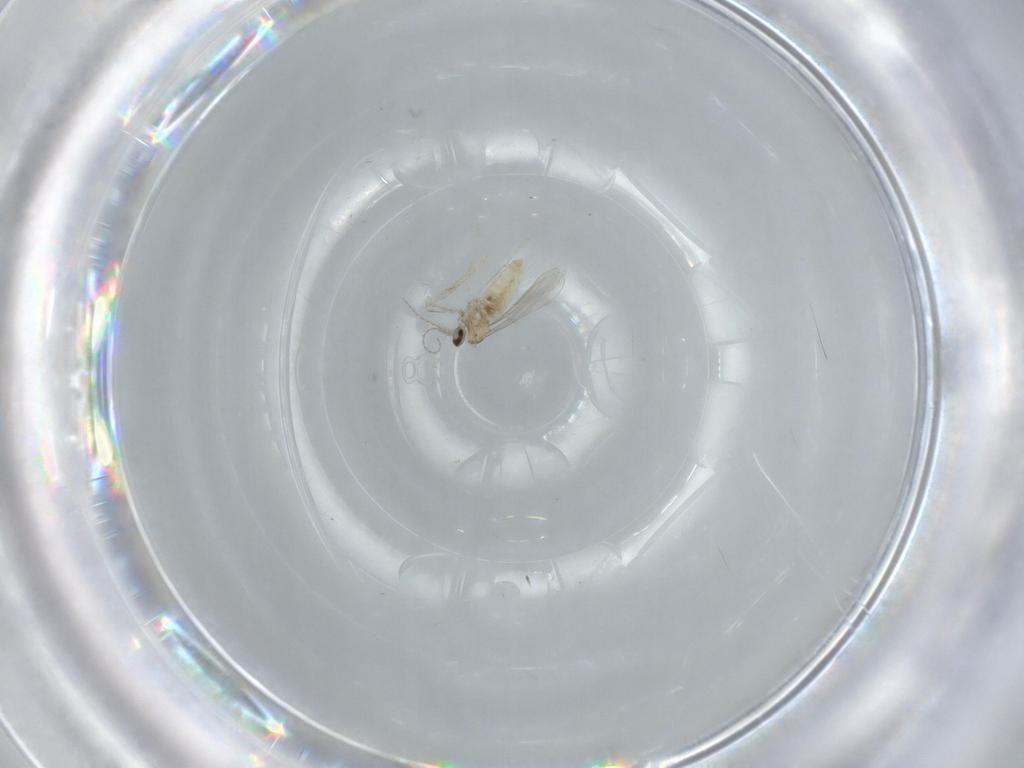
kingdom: Animalia
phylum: Arthropoda
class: Insecta
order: Diptera
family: Cecidomyiidae
